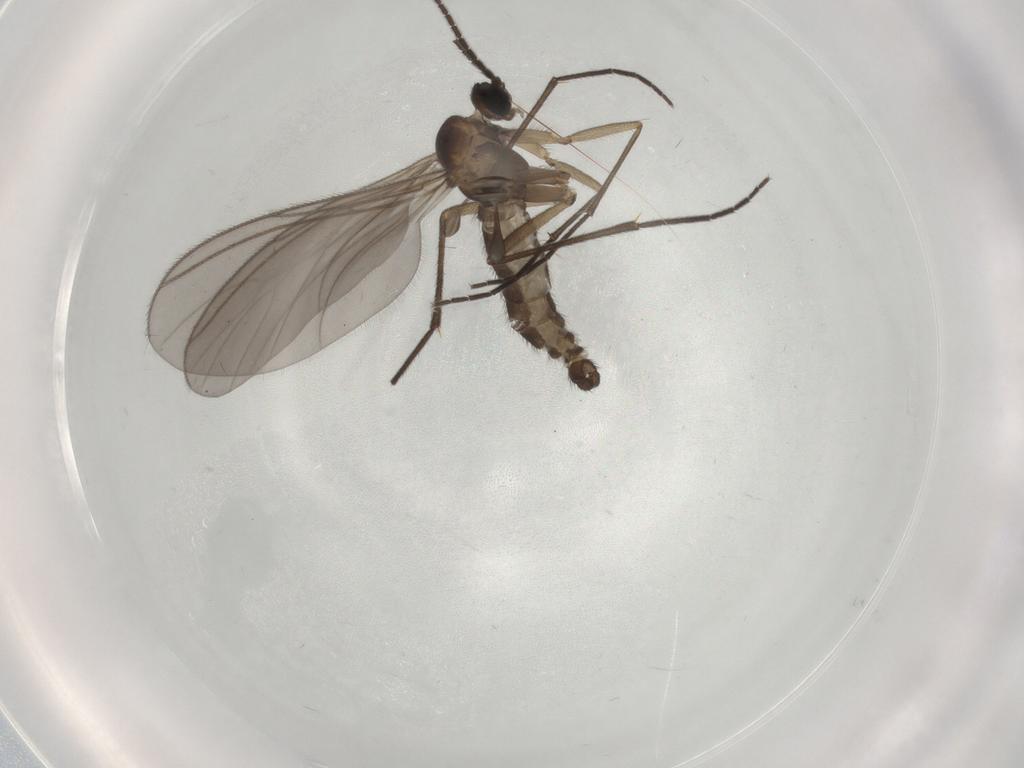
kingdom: Animalia
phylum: Arthropoda
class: Insecta
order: Diptera
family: Sciaridae
